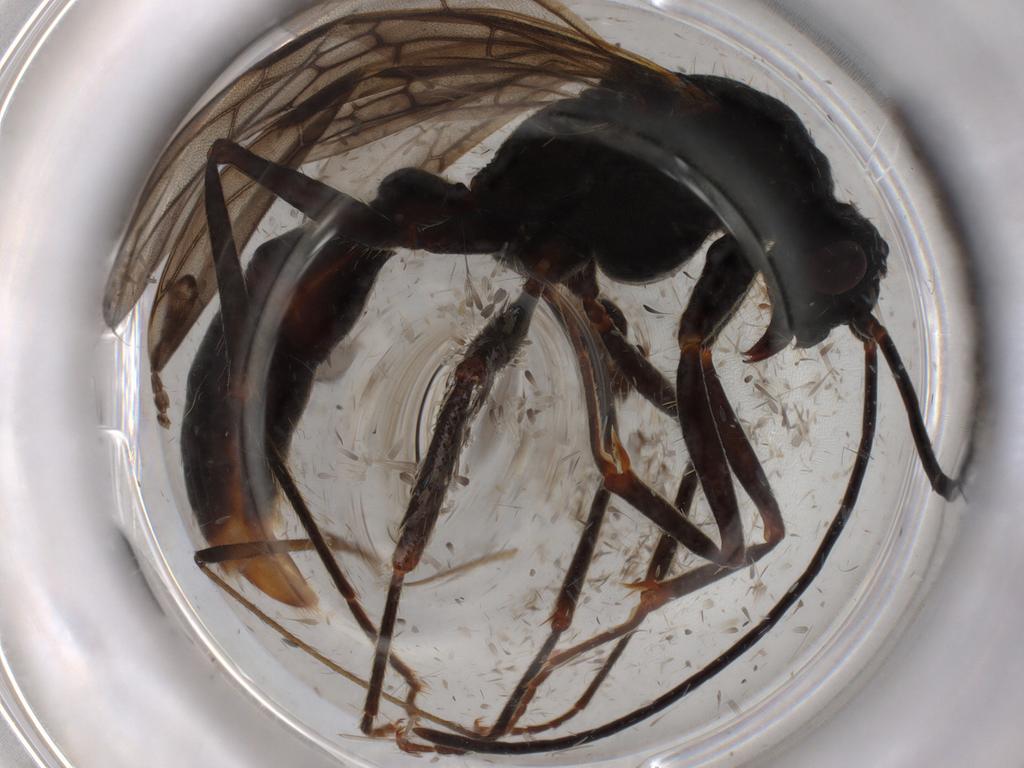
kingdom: Animalia
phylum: Arthropoda
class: Insecta
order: Hymenoptera
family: Formicidae
